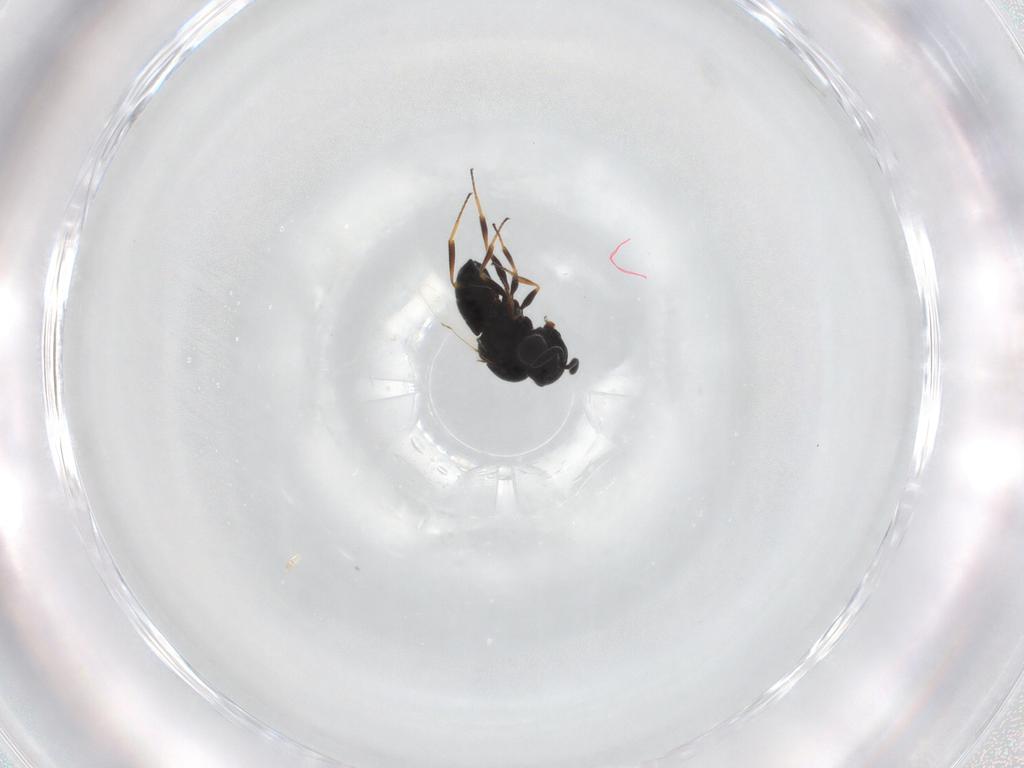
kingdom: Animalia
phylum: Arthropoda
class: Insecta
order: Hymenoptera
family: Scelionidae
